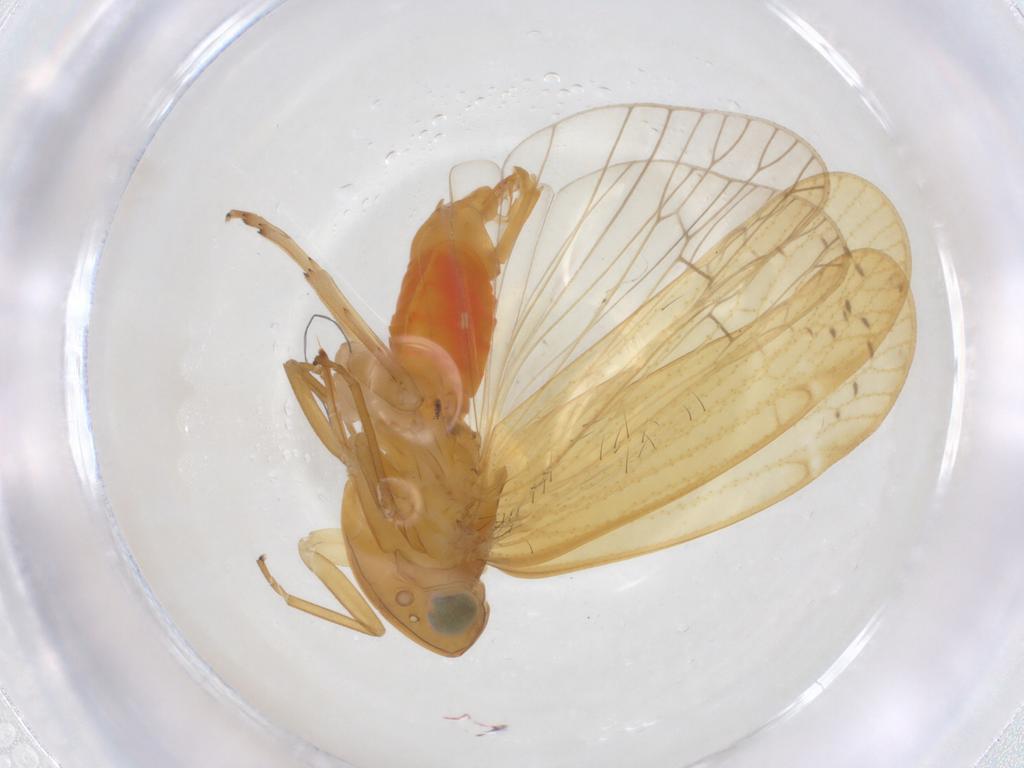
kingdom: Animalia
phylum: Arthropoda
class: Insecta
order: Hemiptera
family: Cixiidae
